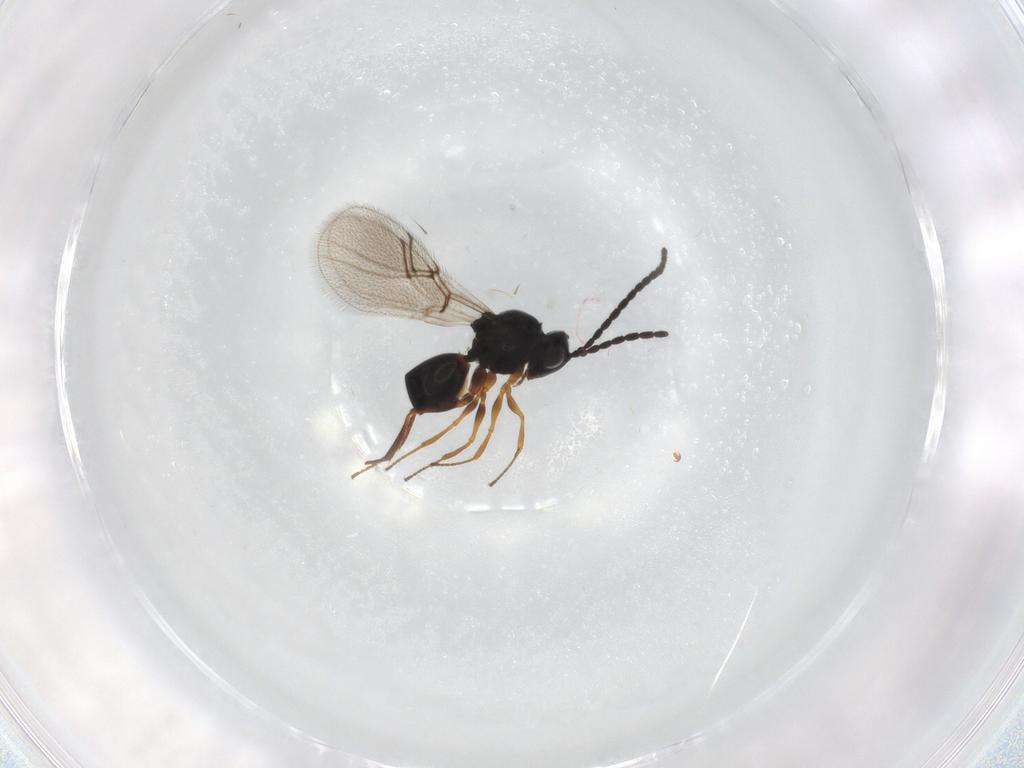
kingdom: Animalia
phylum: Arthropoda
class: Insecta
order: Hymenoptera
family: Figitidae
